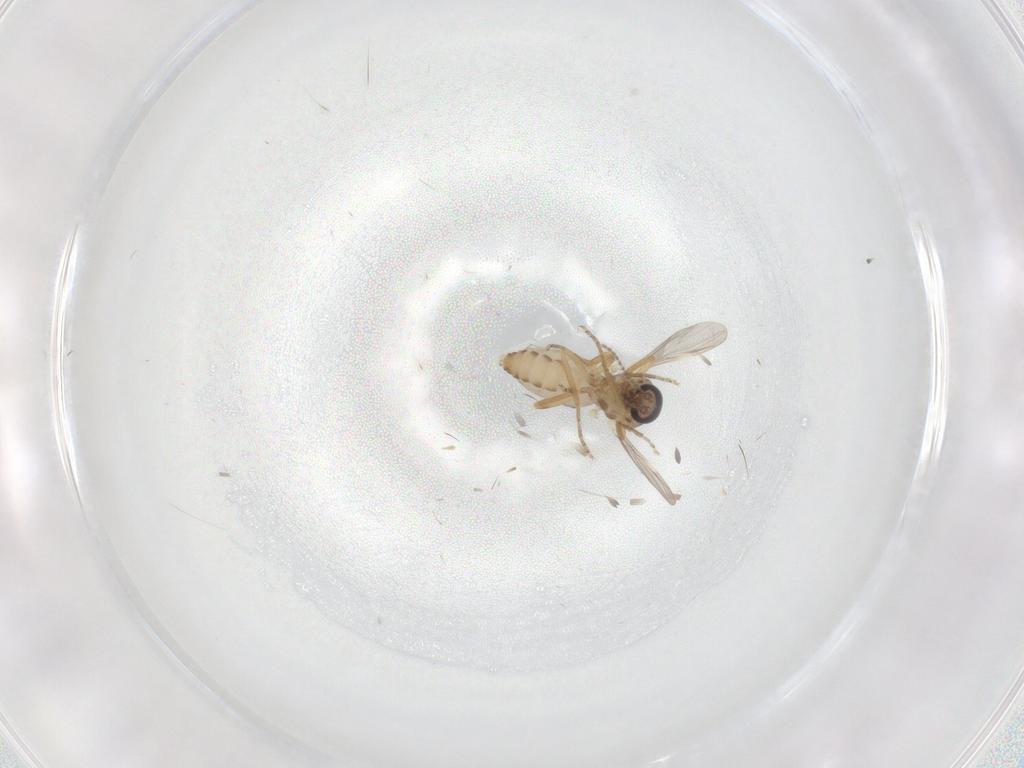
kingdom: Animalia
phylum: Arthropoda
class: Insecta
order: Diptera
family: Ceratopogonidae
